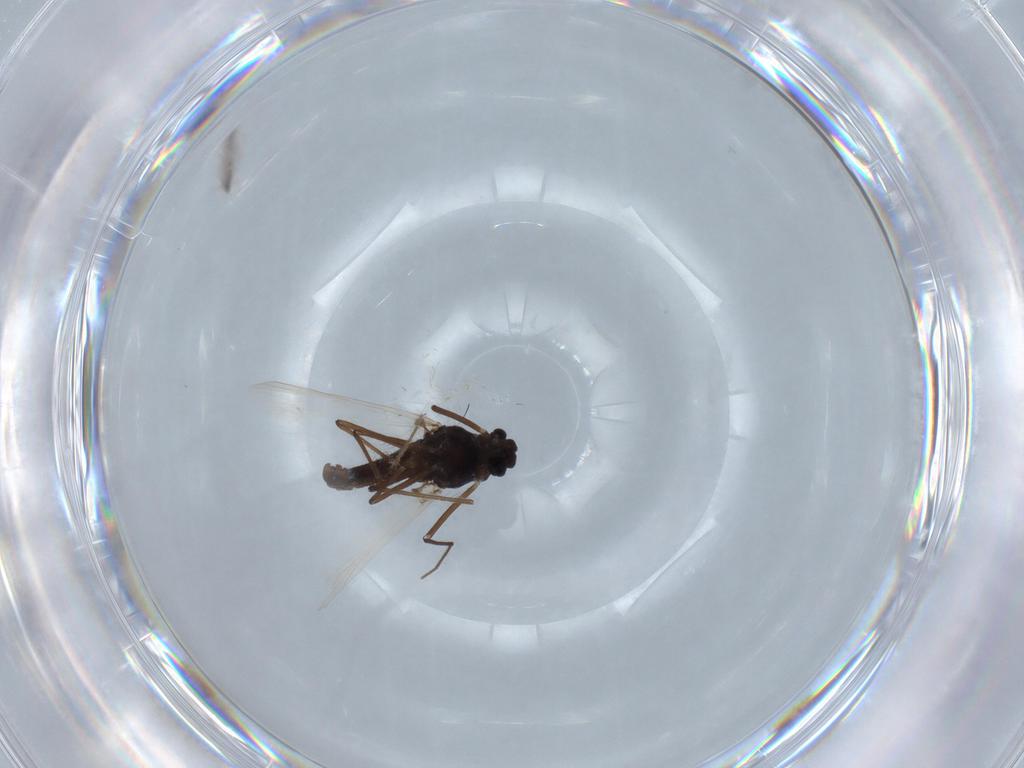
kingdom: Animalia
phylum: Arthropoda
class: Insecta
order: Diptera
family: Chironomidae
